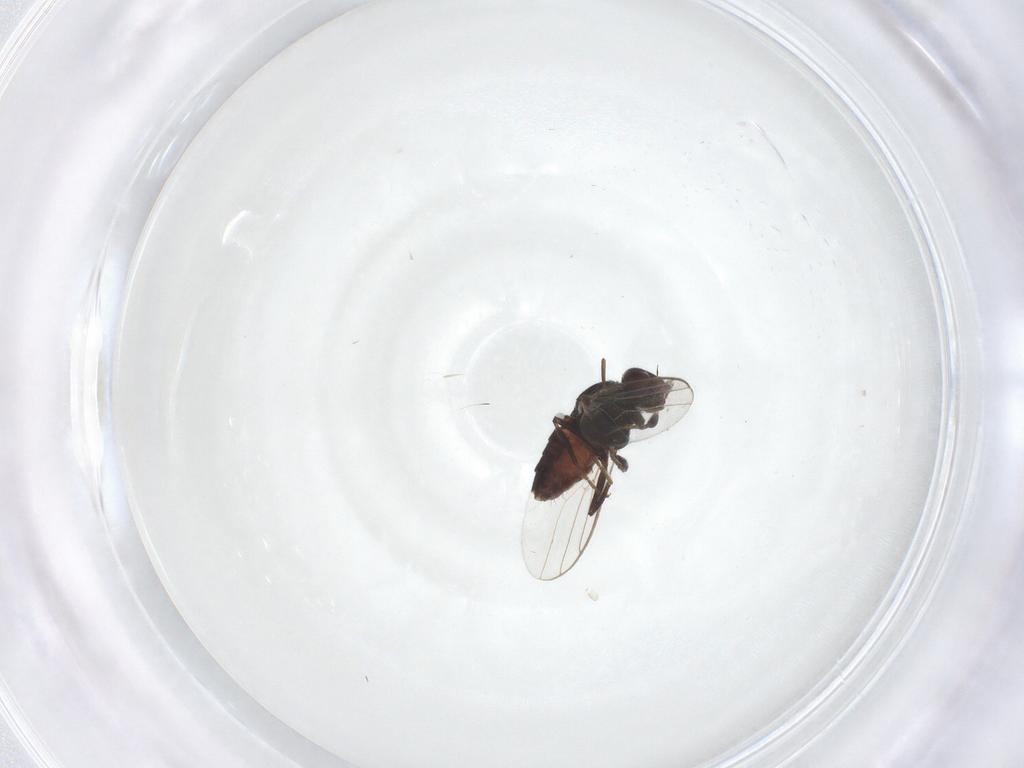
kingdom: Animalia
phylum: Arthropoda
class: Insecta
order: Diptera
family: Chloropidae
